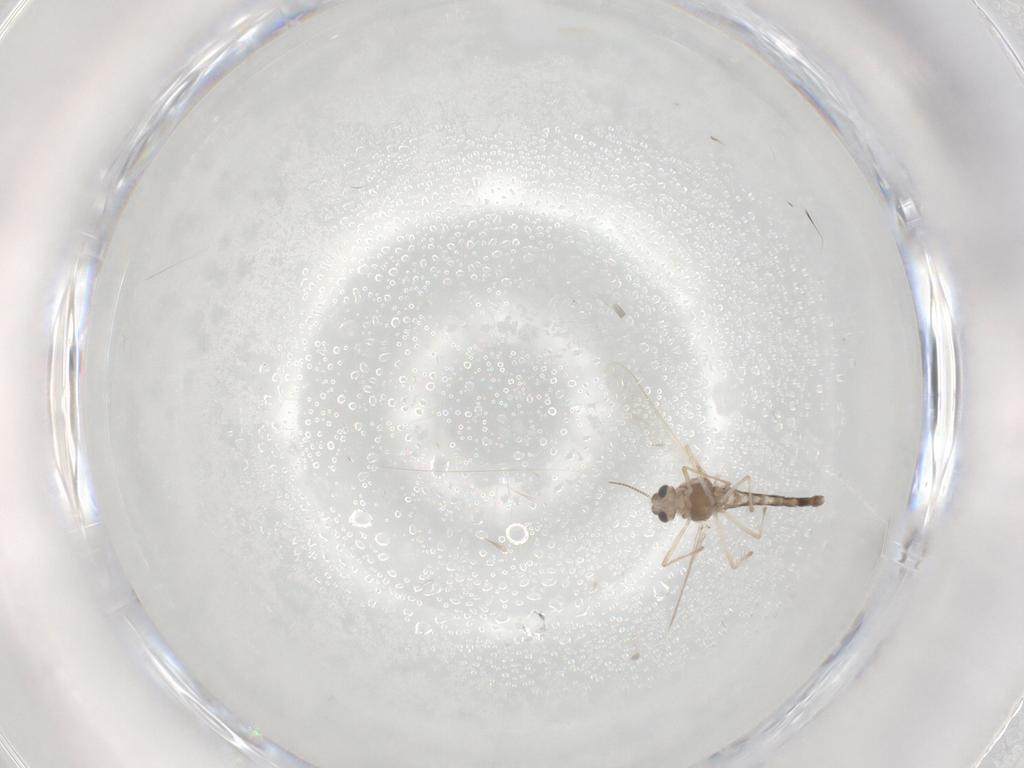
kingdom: Animalia
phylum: Arthropoda
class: Insecta
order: Diptera
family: Chironomidae
